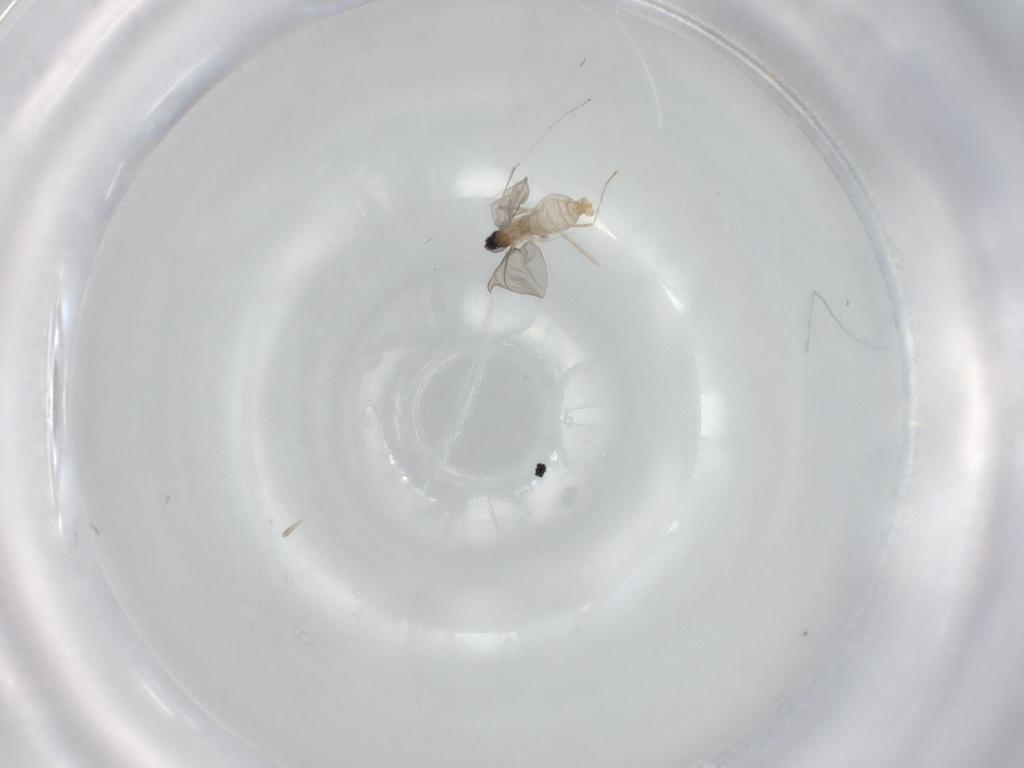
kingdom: Animalia
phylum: Arthropoda
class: Insecta
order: Diptera
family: Cecidomyiidae
